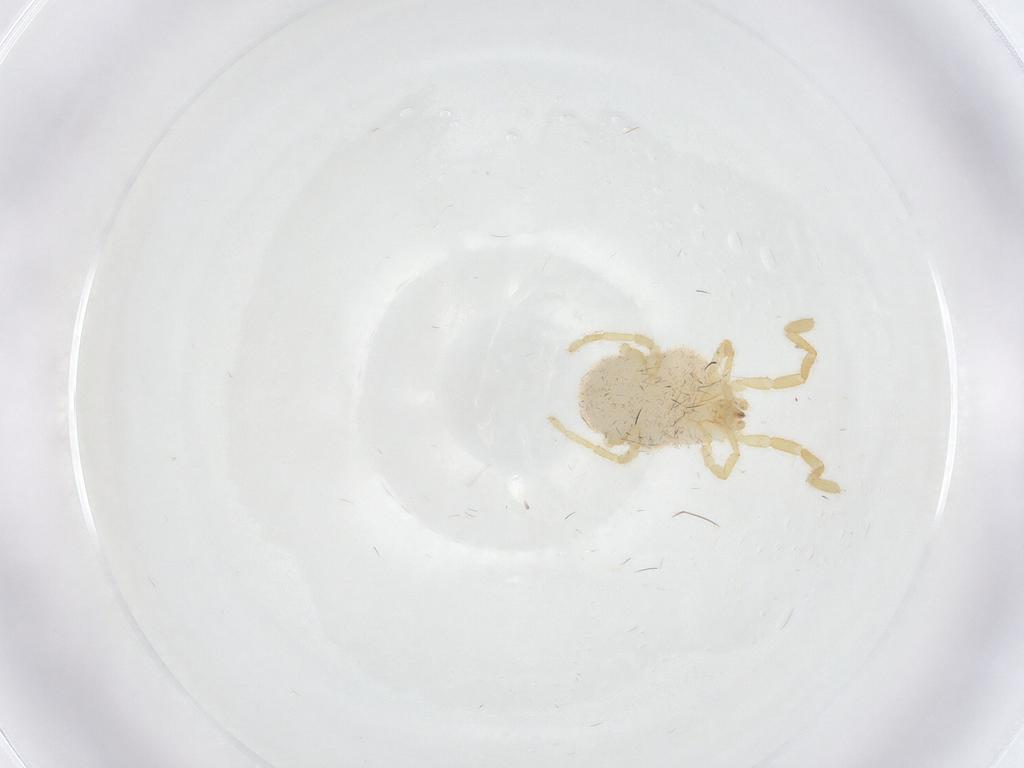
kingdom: Animalia
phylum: Arthropoda
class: Arachnida
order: Trombidiformes
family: Erythraeidae
